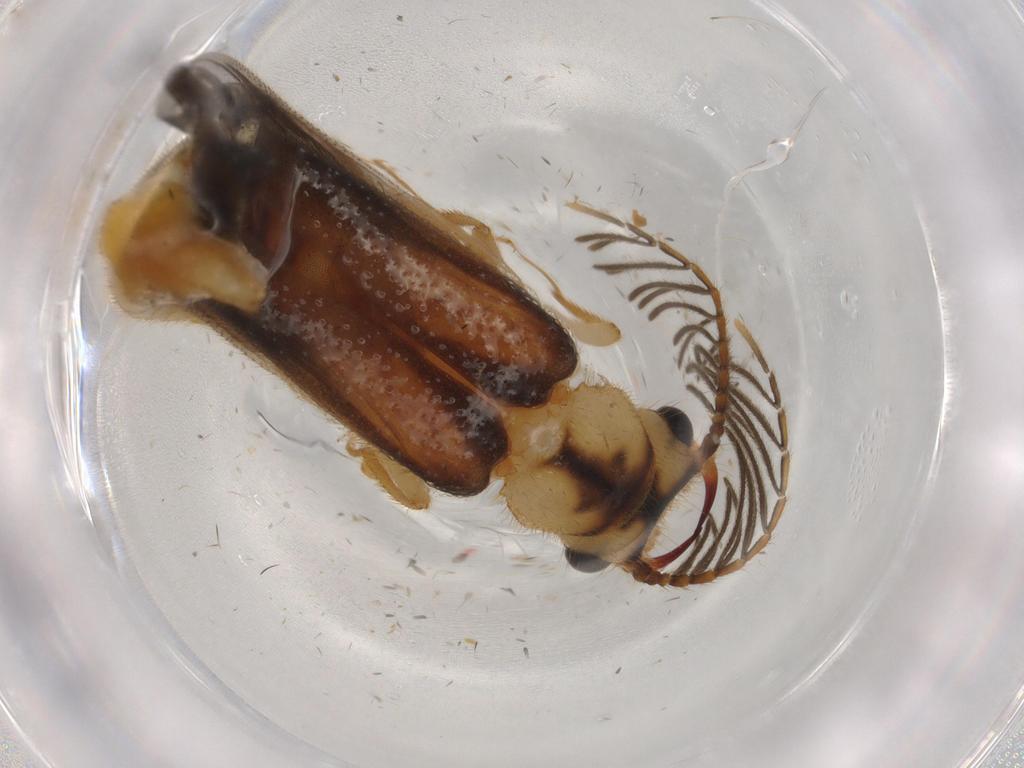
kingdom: Animalia
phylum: Arthropoda
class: Insecta
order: Coleoptera
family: Phengodidae
